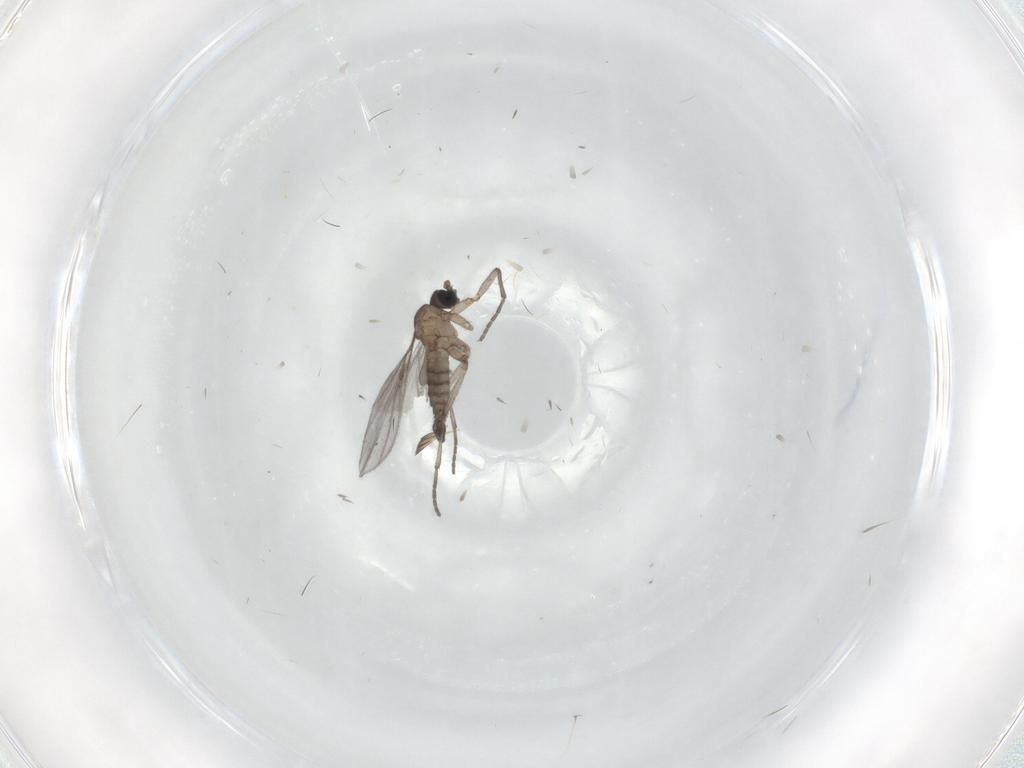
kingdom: Animalia
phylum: Arthropoda
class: Insecta
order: Diptera
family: Sciaridae
